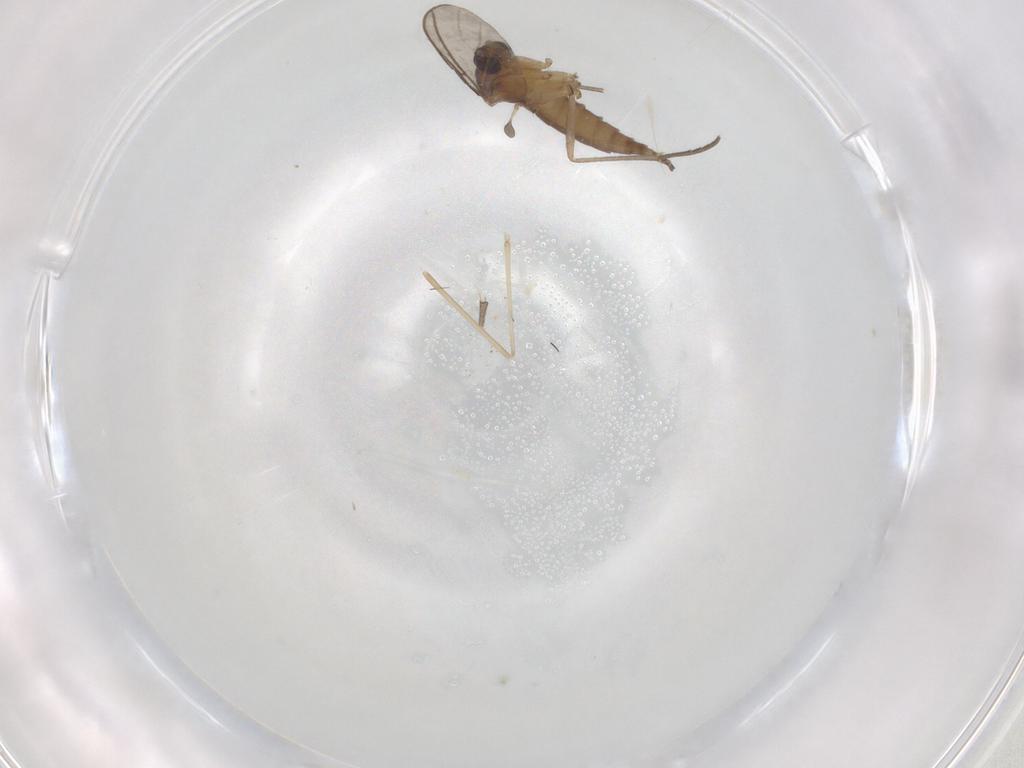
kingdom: Animalia
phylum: Arthropoda
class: Insecta
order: Diptera
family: Sciaridae
